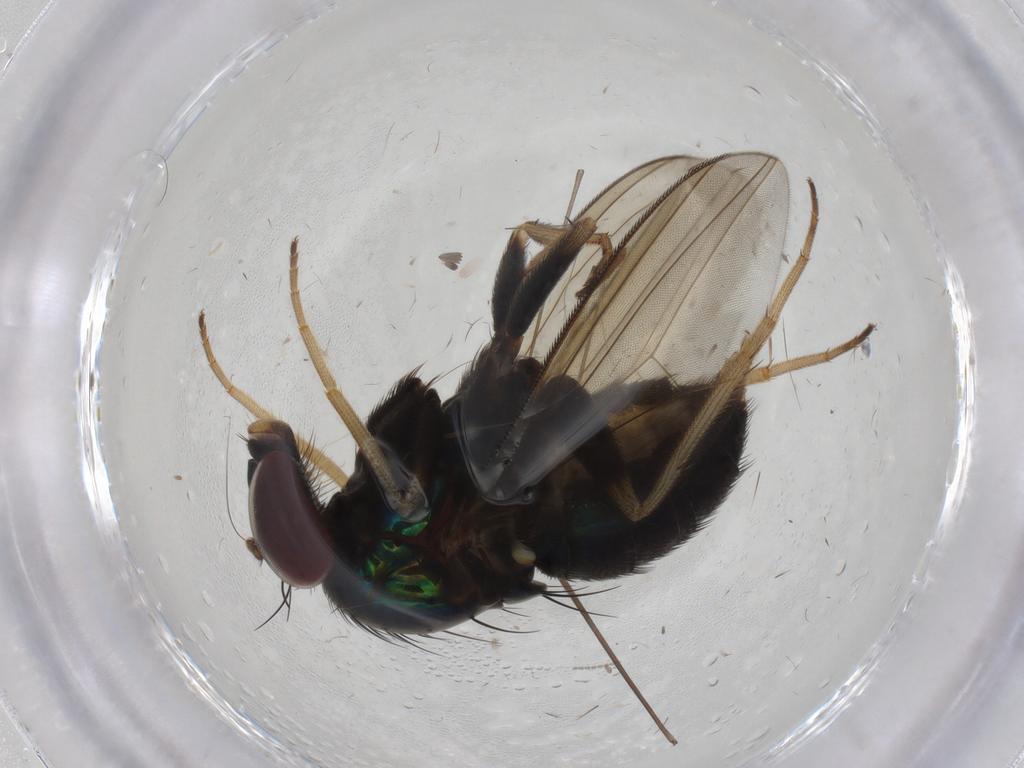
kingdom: Animalia
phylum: Arthropoda
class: Insecta
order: Diptera
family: Dolichopodidae
